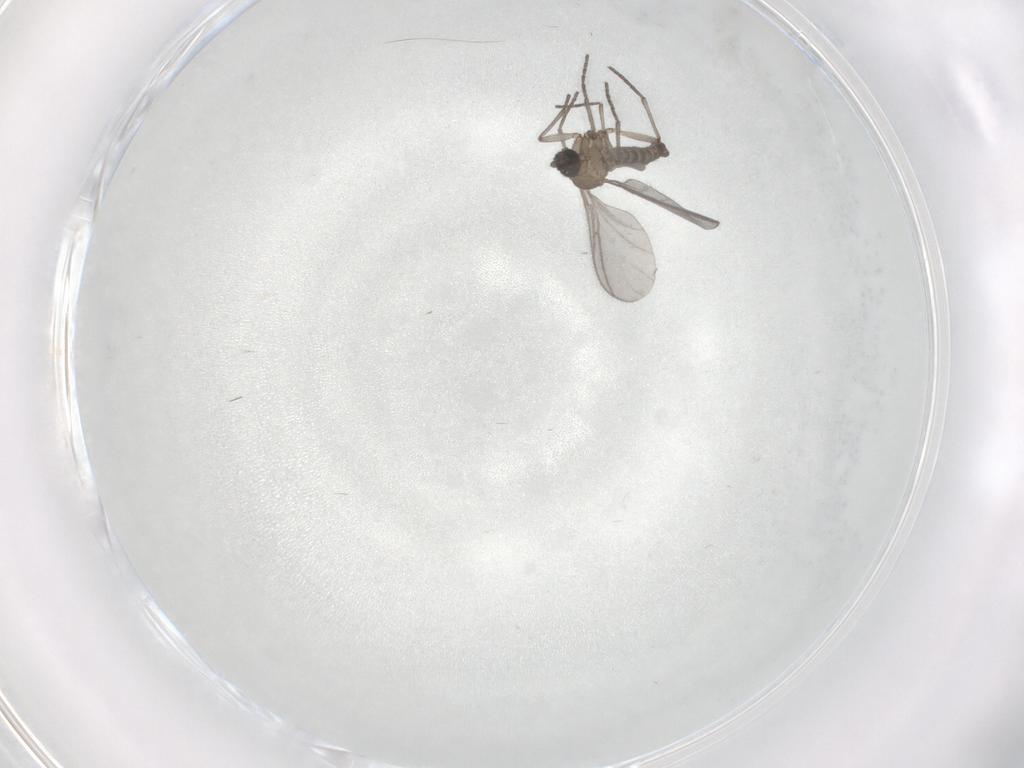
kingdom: Animalia
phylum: Arthropoda
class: Insecta
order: Diptera
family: Sciaridae
